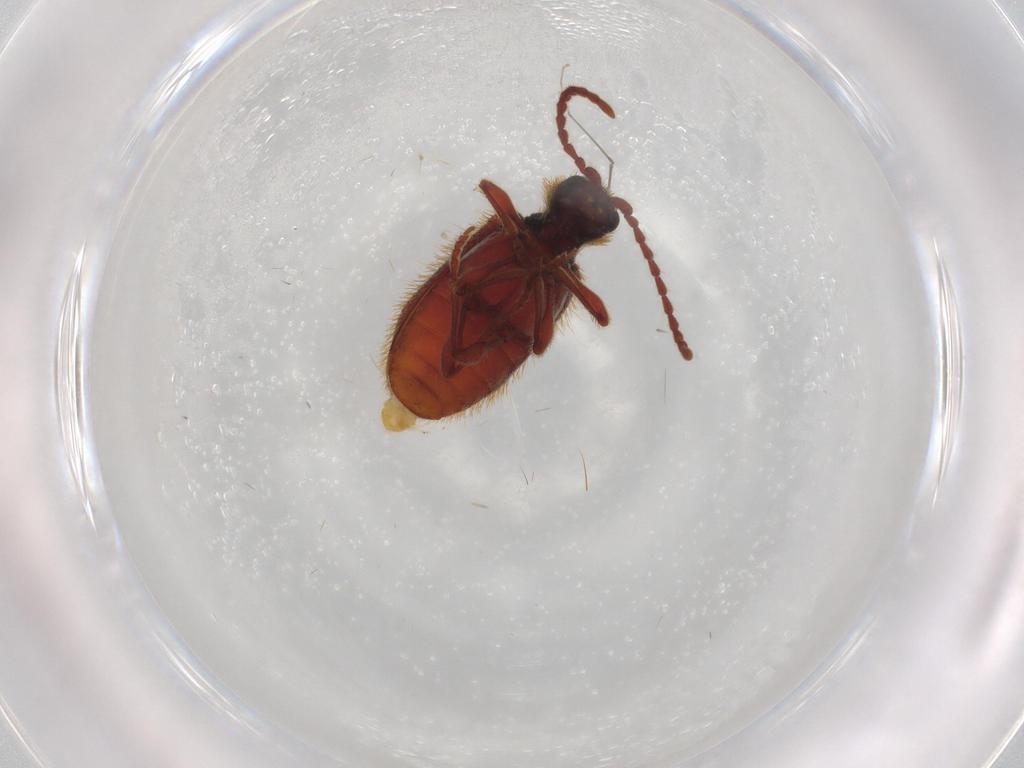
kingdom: Animalia
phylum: Arthropoda
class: Insecta
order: Coleoptera
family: Ptinidae
